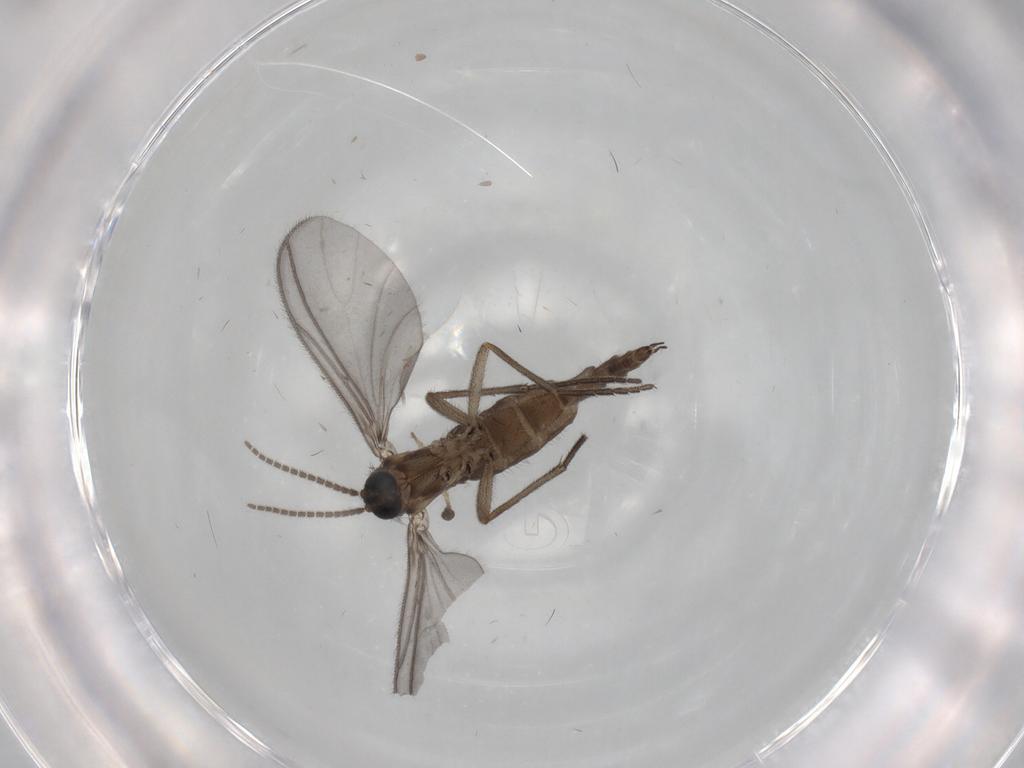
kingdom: Animalia
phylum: Arthropoda
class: Insecta
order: Diptera
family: Sciaridae
